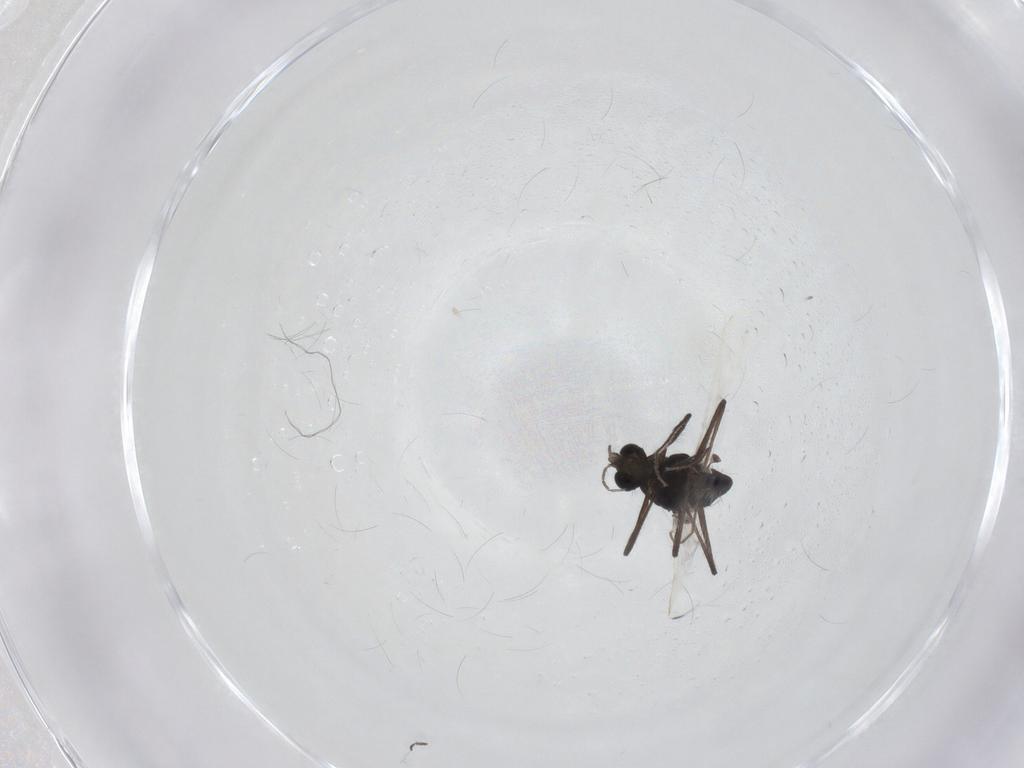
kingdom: Animalia
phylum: Arthropoda
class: Insecta
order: Diptera
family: Chironomidae
